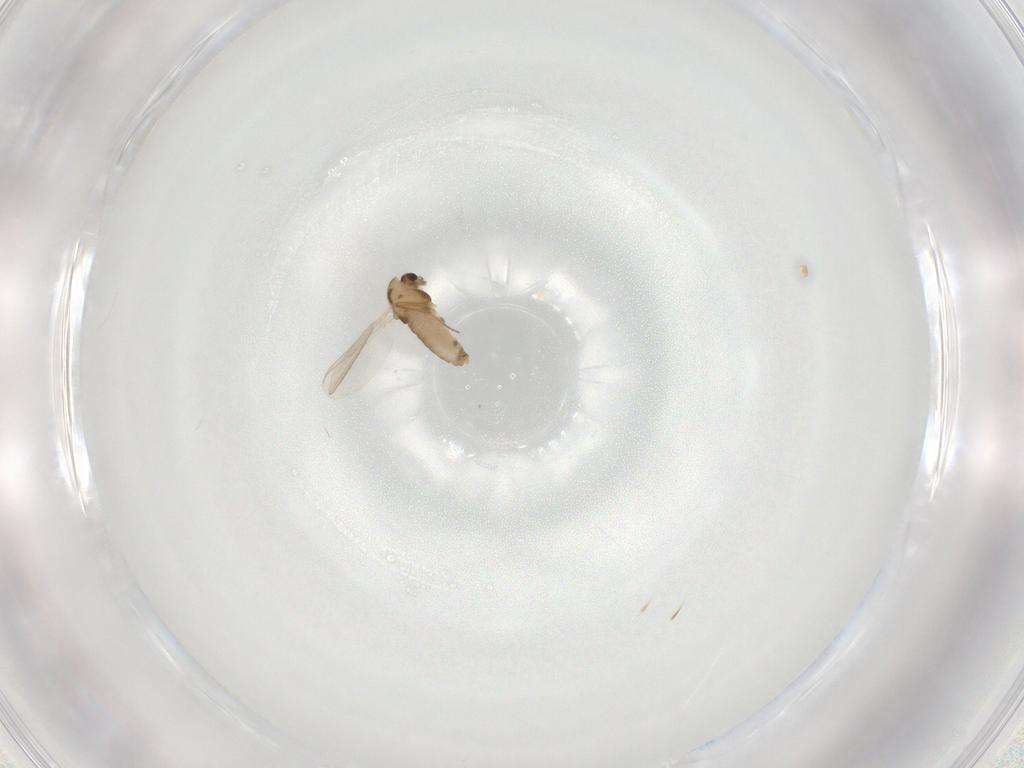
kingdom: Animalia
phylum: Arthropoda
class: Insecta
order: Diptera
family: Chironomidae
